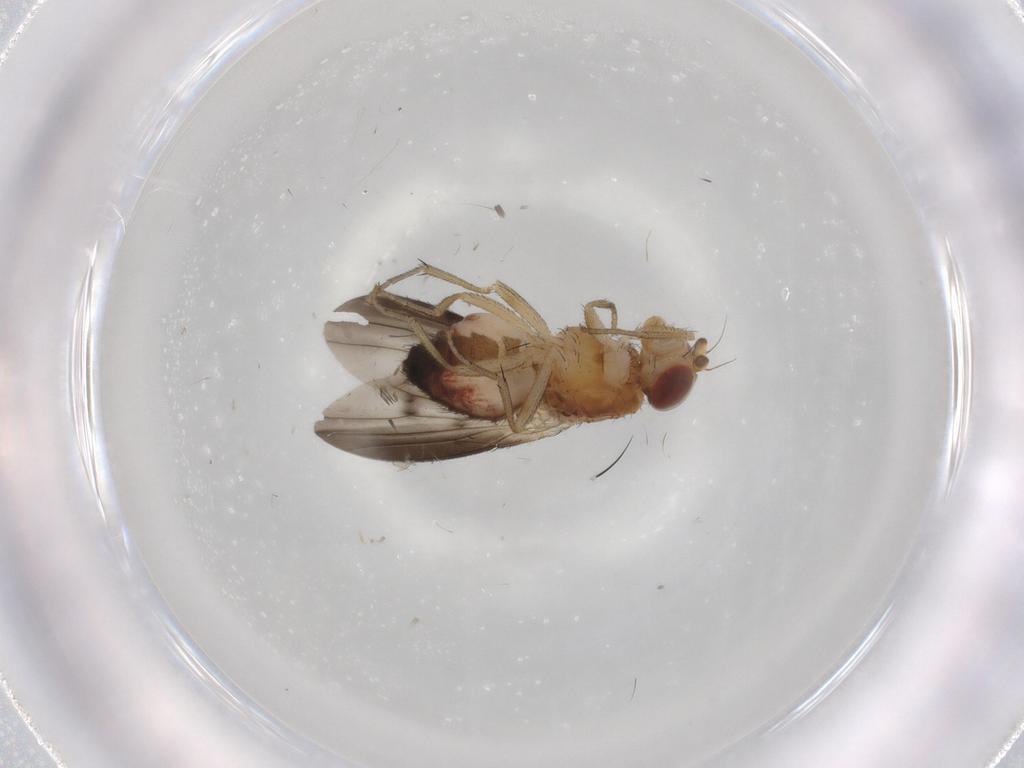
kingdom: Animalia
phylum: Arthropoda
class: Insecta
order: Diptera
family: Heleomyzidae
